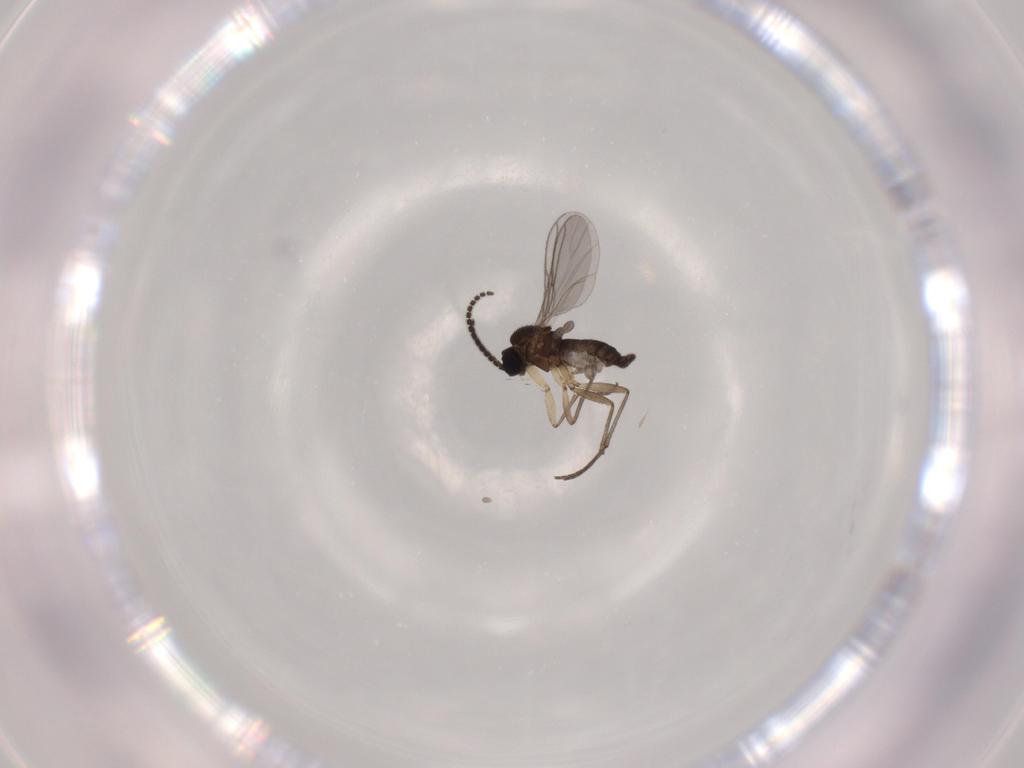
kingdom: Animalia
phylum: Arthropoda
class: Insecta
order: Diptera
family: Sciaridae
